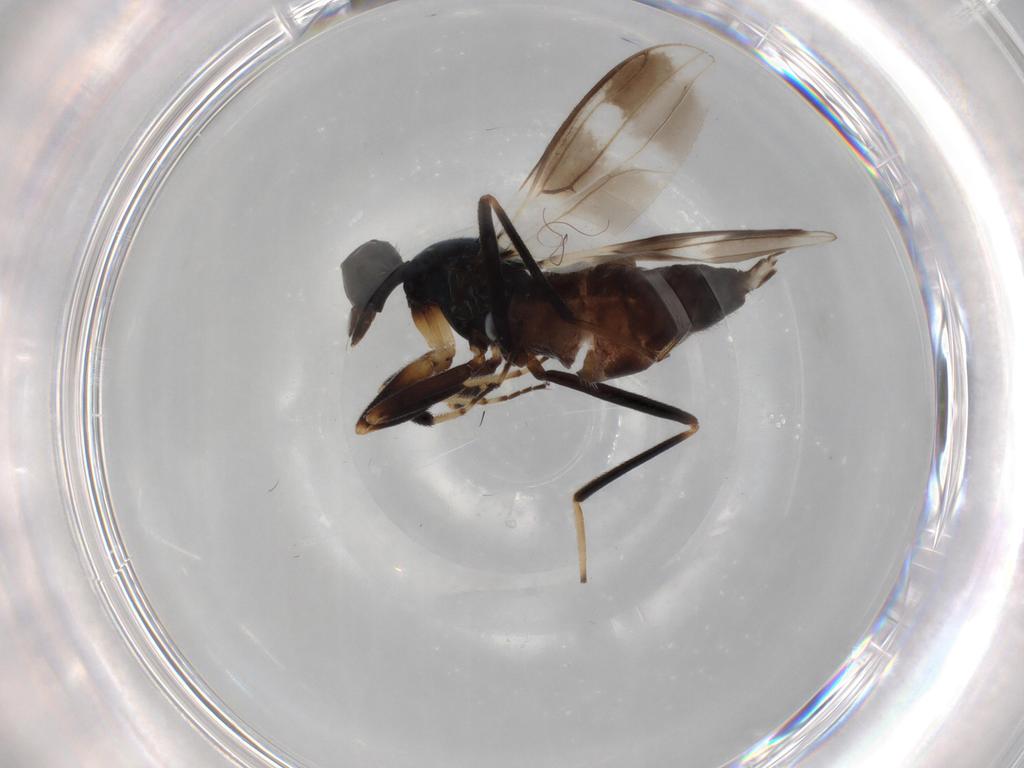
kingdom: Animalia
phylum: Arthropoda
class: Insecta
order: Diptera
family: Hybotidae
